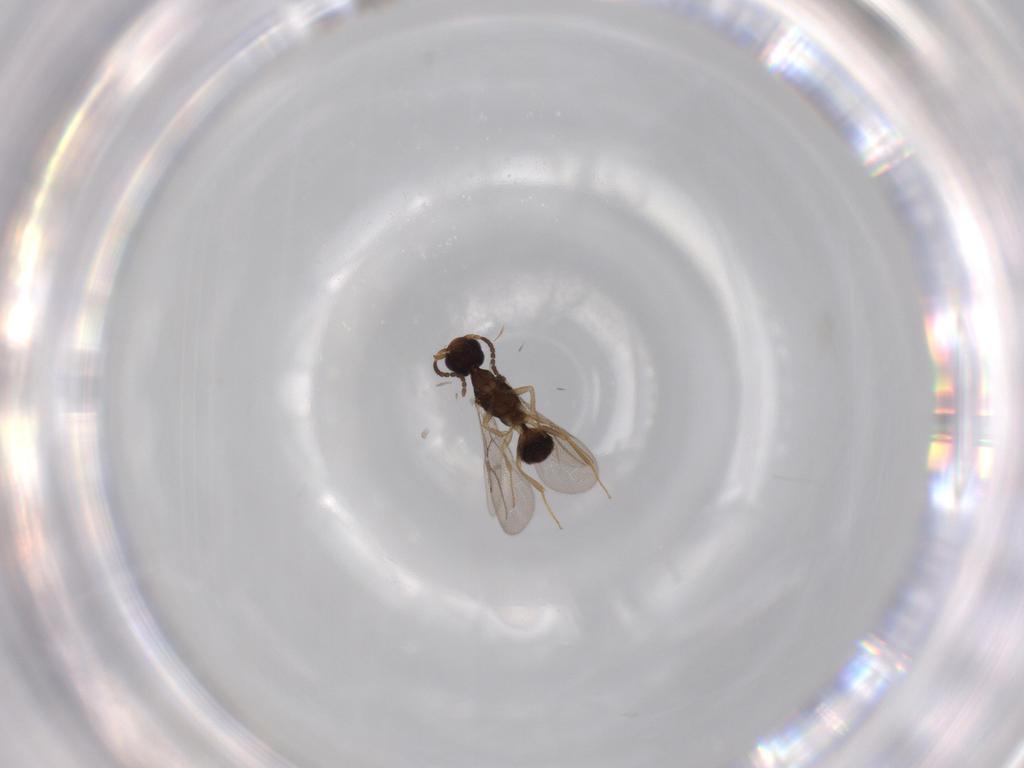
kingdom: Animalia
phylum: Arthropoda
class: Insecta
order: Hymenoptera
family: Bethylidae
